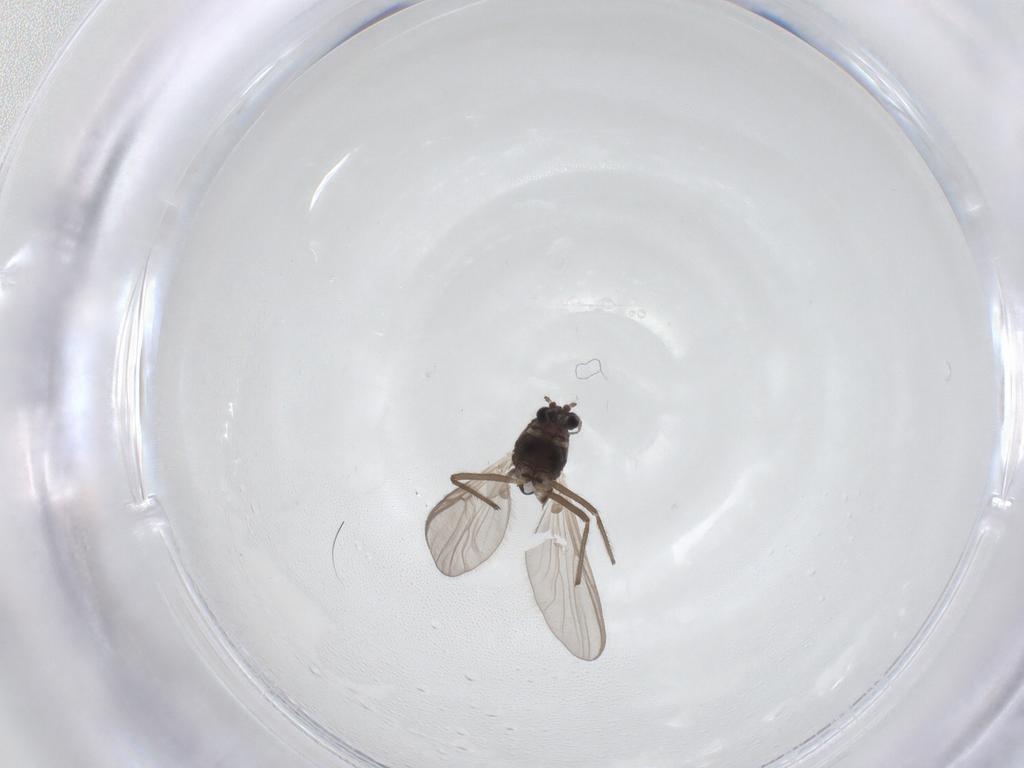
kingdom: Animalia
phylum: Arthropoda
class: Insecta
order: Diptera
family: Chironomidae
